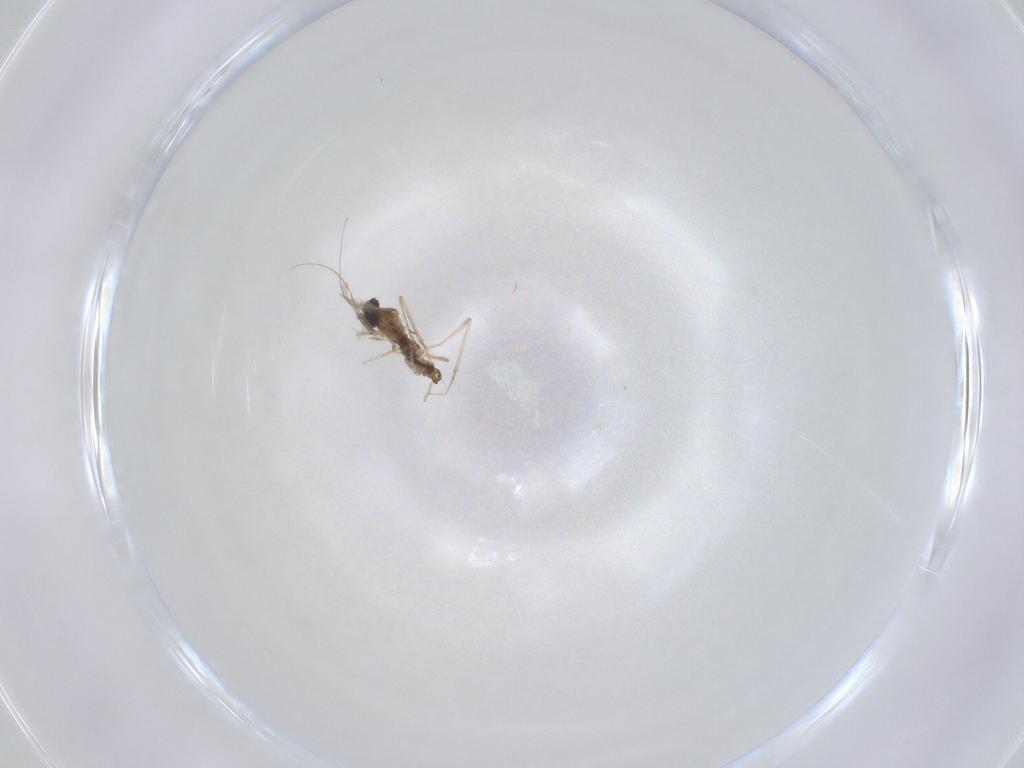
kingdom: Animalia
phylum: Arthropoda
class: Insecta
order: Diptera
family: Cecidomyiidae
